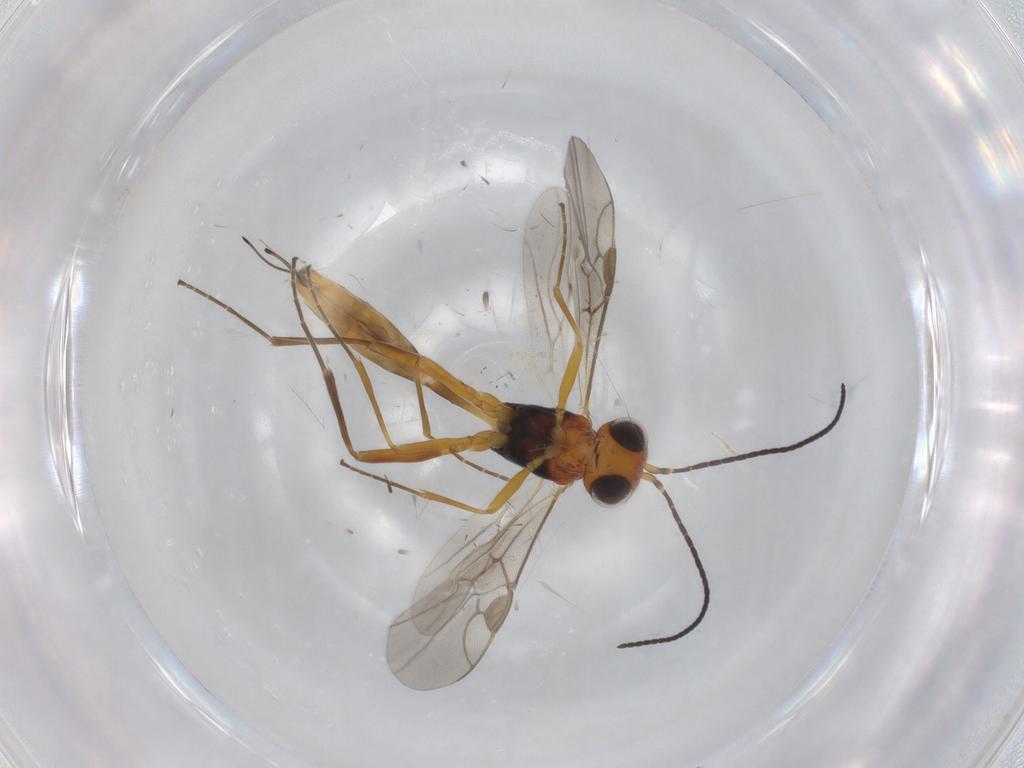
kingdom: Animalia
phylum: Arthropoda
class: Insecta
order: Hymenoptera
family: Braconidae
